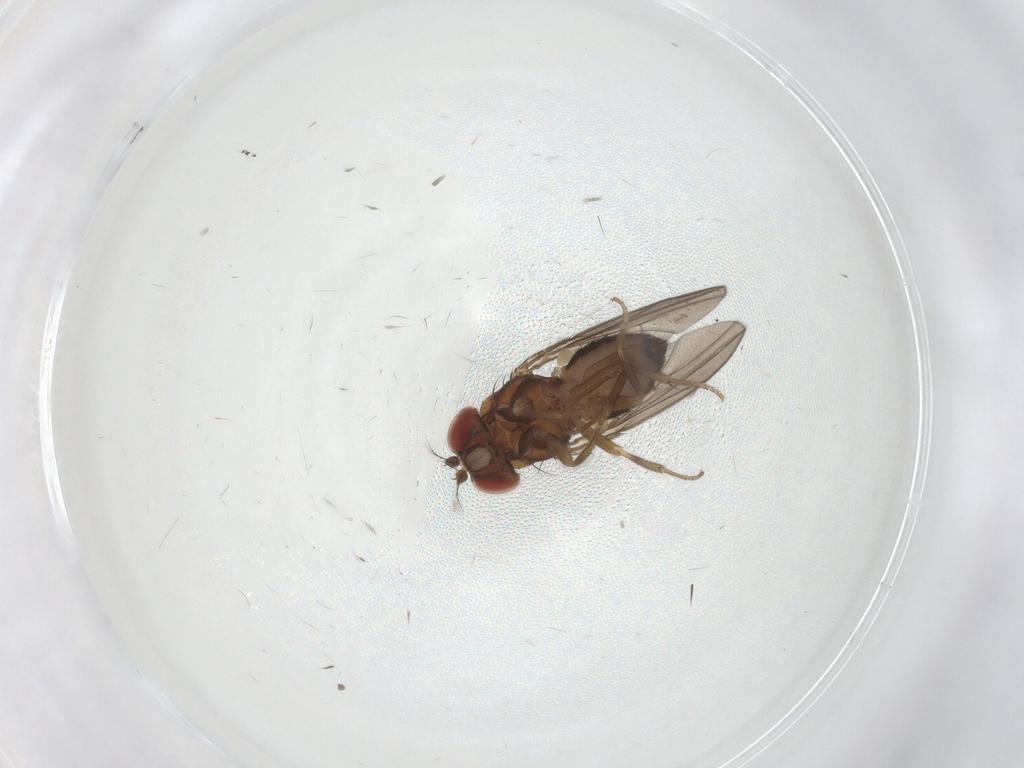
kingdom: Animalia
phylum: Arthropoda
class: Insecta
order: Diptera
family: Drosophilidae
